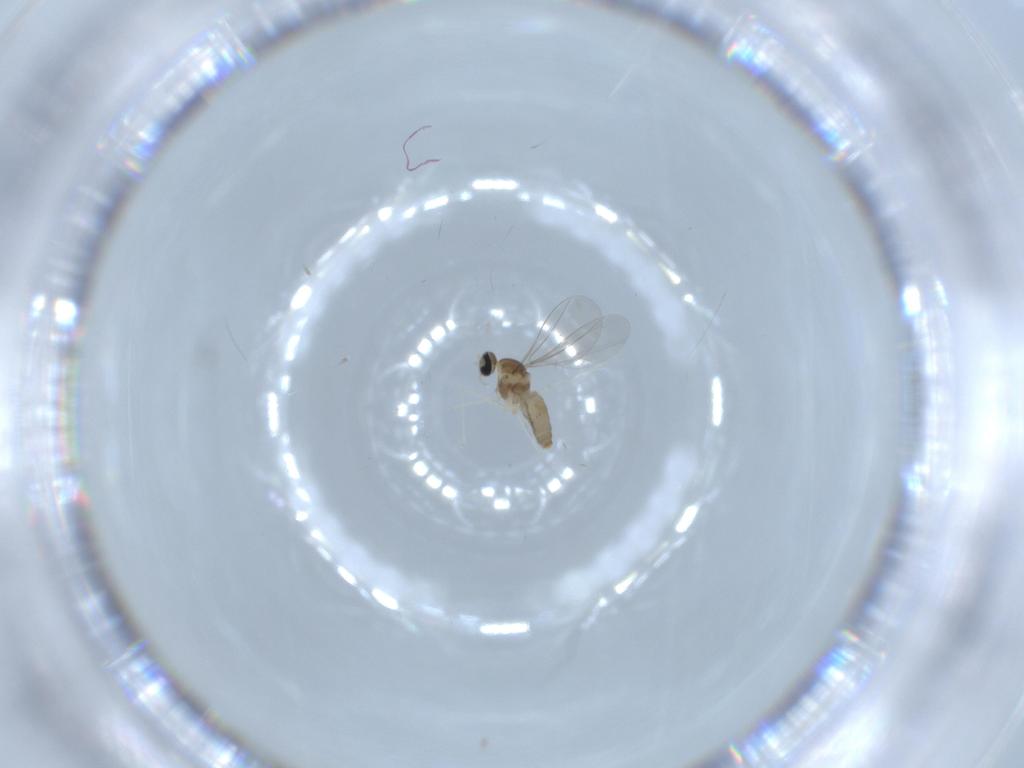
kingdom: Animalia
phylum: Arthropoda
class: Insecta
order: Diptera
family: Cecidomyiidae
